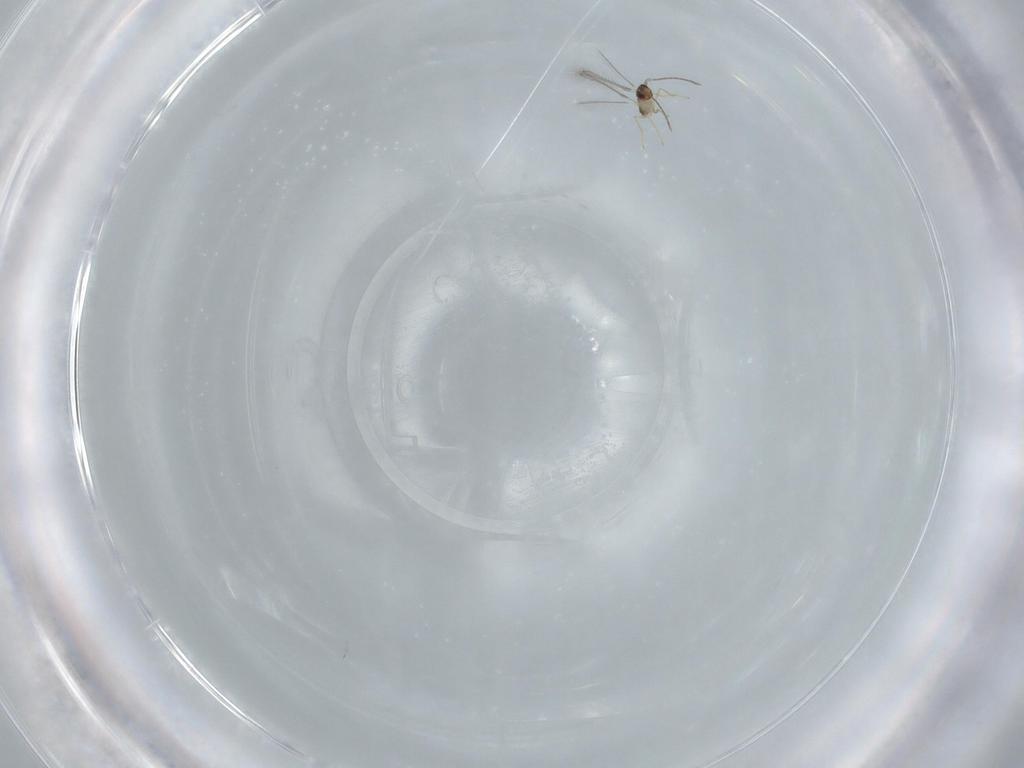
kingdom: Animalia
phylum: Arthropoda
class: Insecta
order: Hymenoptera
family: Mymaridae
